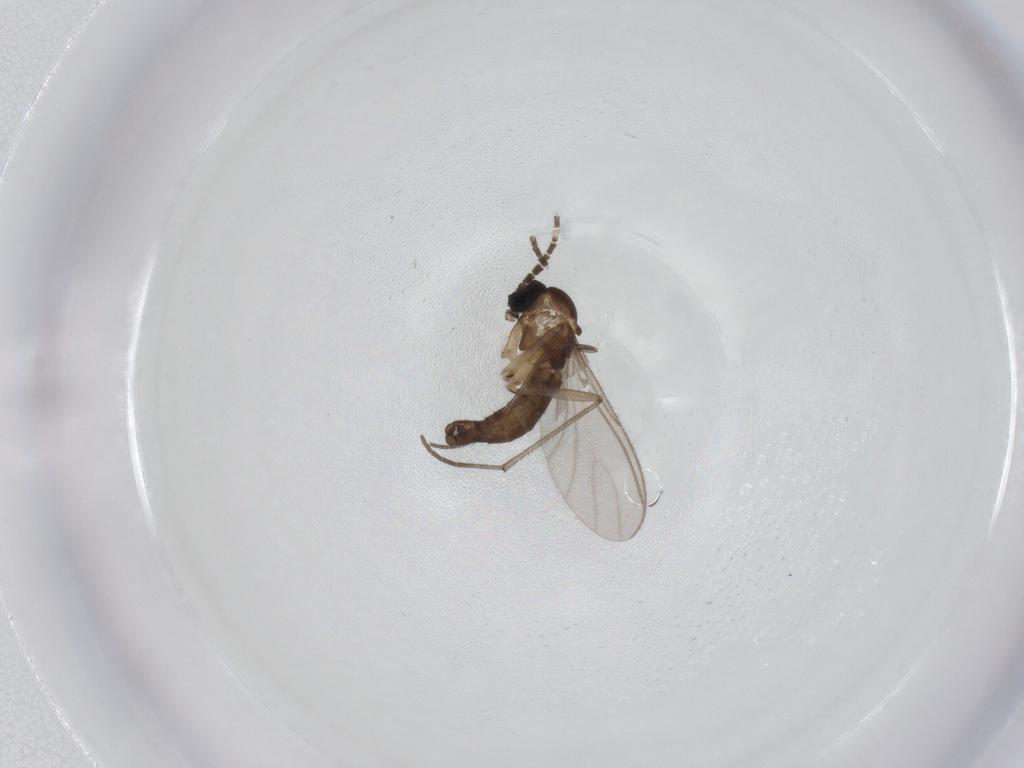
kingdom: Animalia
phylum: Arthropoda
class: Insecta
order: Diptera
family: Sciaridae
